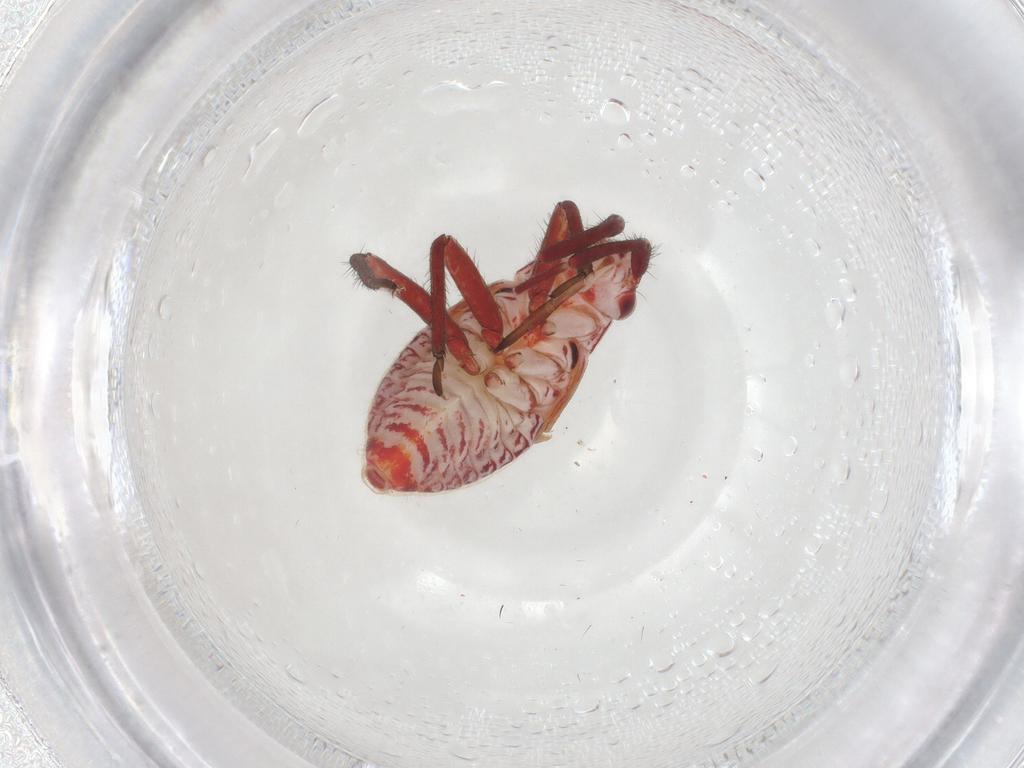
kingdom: Animalia
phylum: Arthropoda
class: Insecta
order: Hemiptera
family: Miridae
